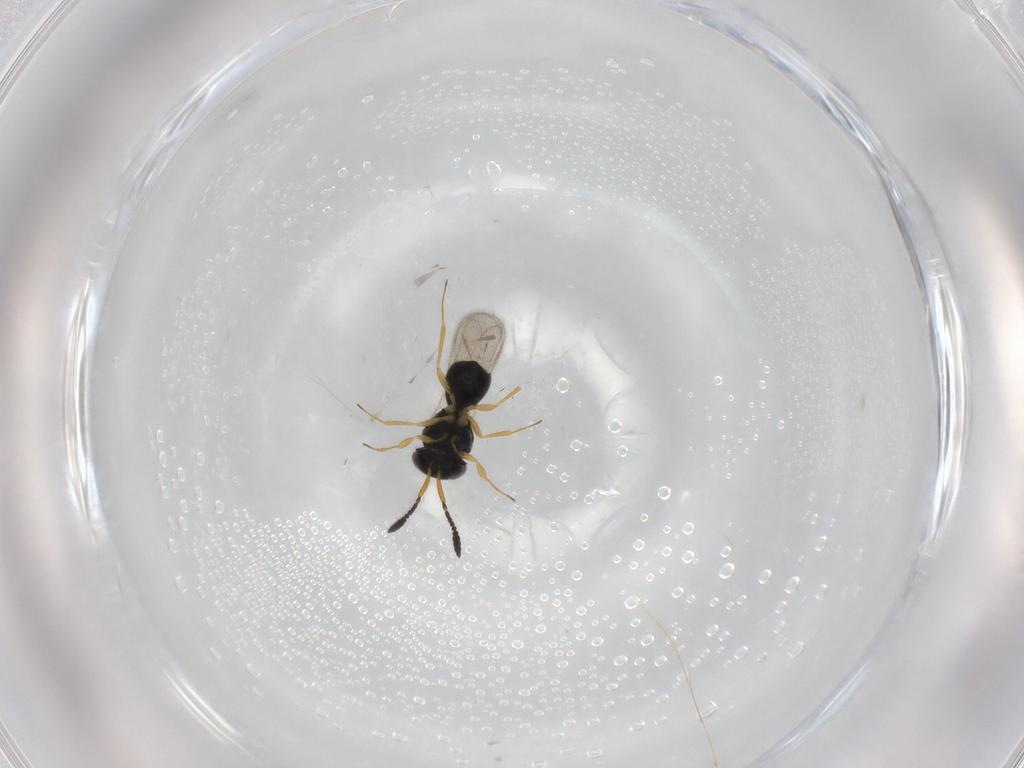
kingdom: Animalia
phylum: Arthropoda
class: Insecta
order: Hymenoptera
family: Scelionidae
